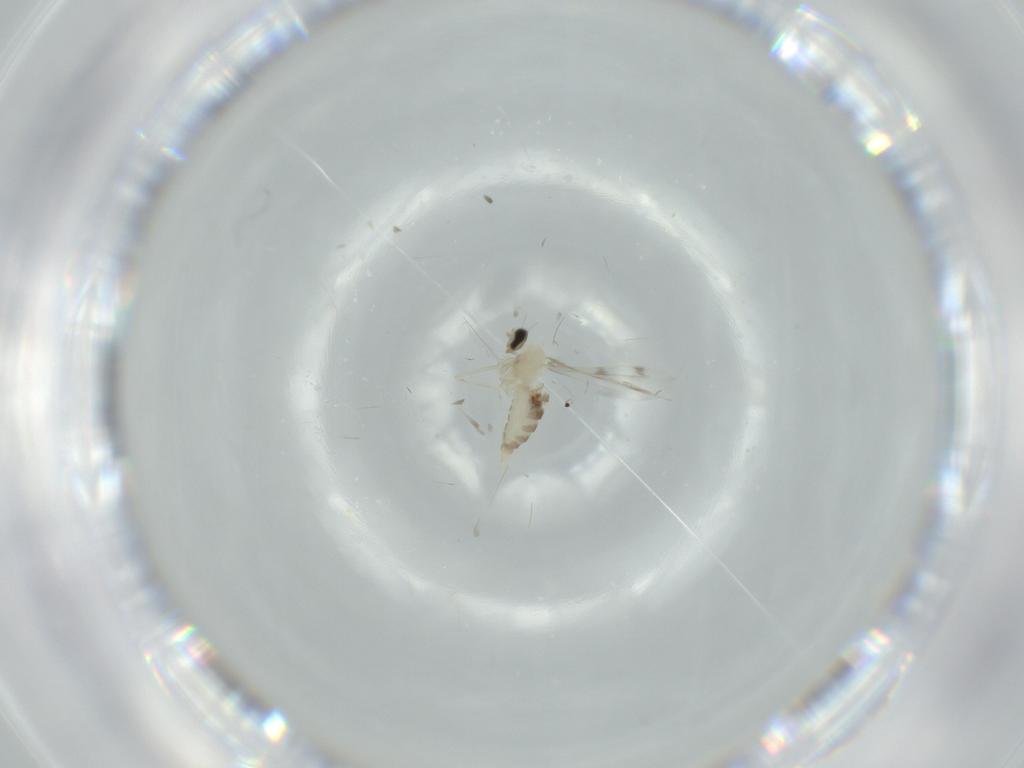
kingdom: Animalia
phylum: Arthropoda
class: Insecta
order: Diptera
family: Cecidomyiidae
